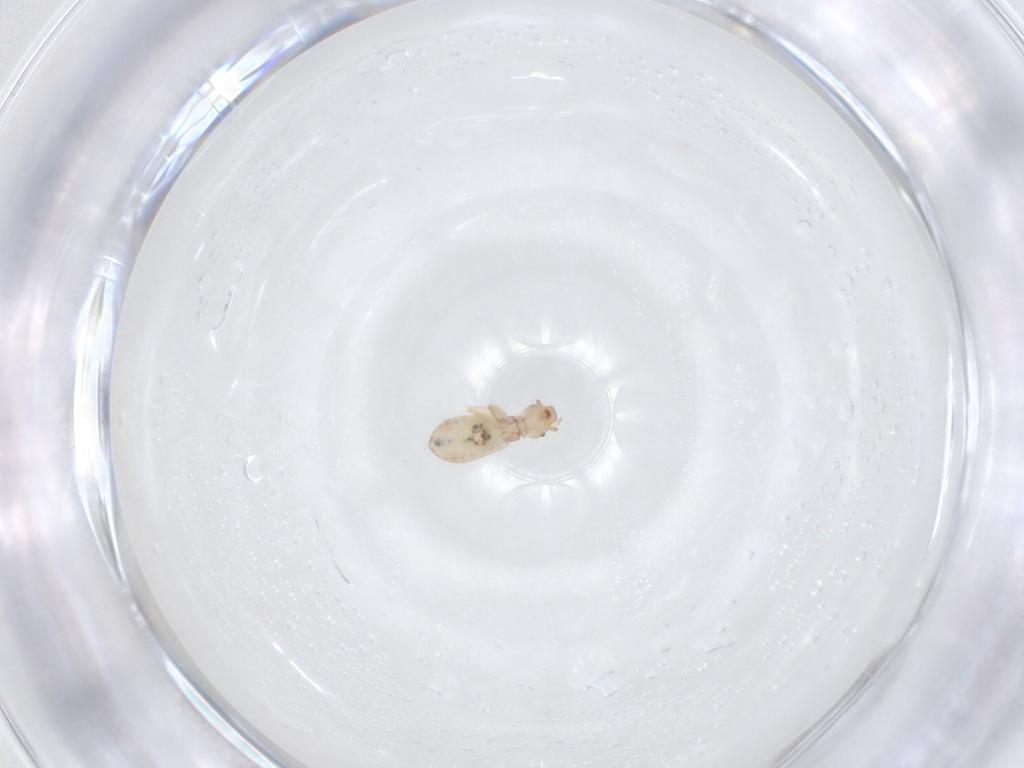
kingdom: Animalia
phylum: Arthropoda
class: Insecta
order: Psocodea
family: Liposcelididae
